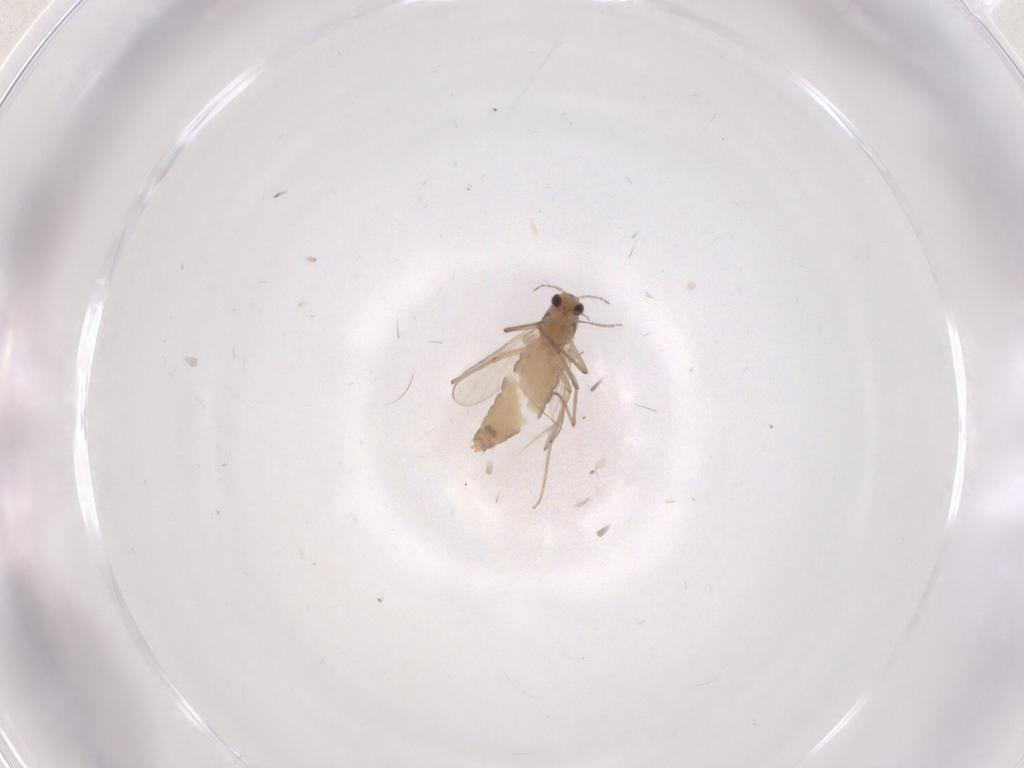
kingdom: Animalia
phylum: Arthropoda
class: Insecta
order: Diptera
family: Chironomidae
